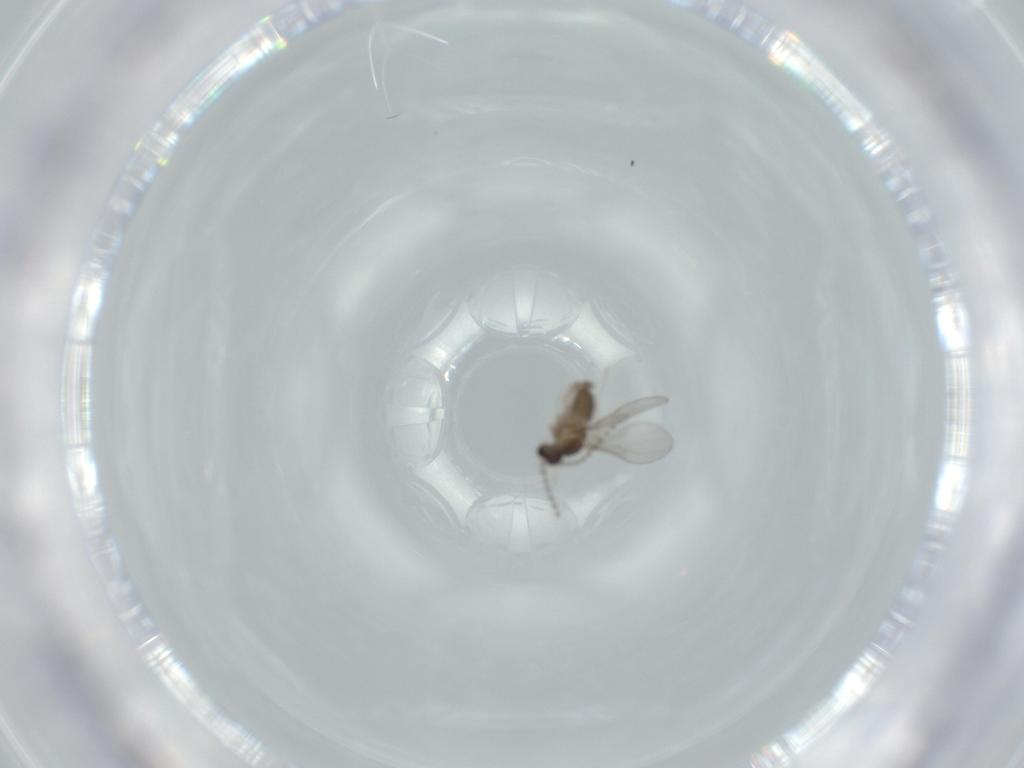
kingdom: Animalia
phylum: Arthropoda
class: Insecta
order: Diptera
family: Cecidomyiidae
